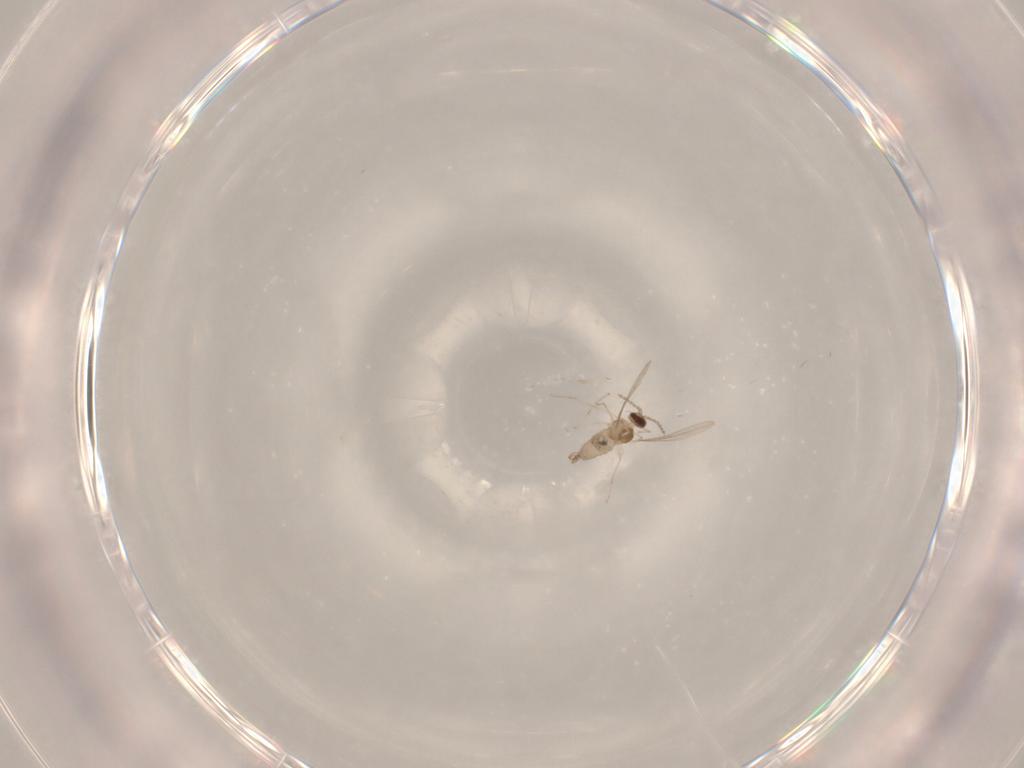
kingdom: Animalia
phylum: Arthropoda
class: Insecta
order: Diptera
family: Cecidomyiidae
